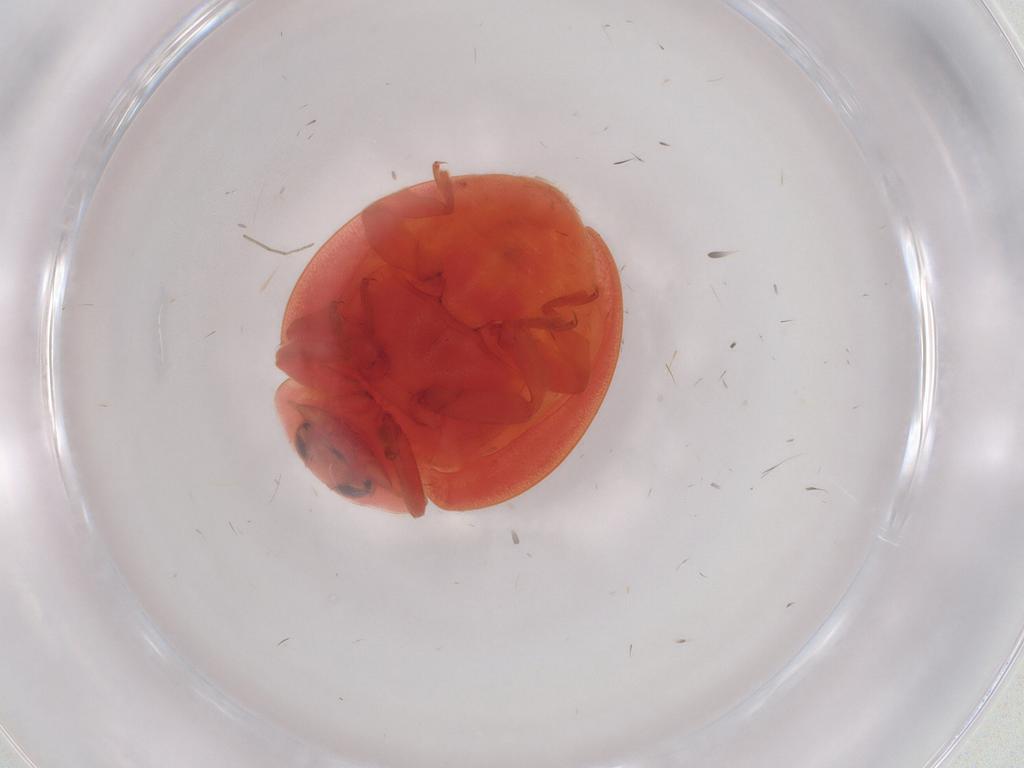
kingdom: Animalia
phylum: Arthropoda
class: Insecta
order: Coleoptera
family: Coccinellidae
